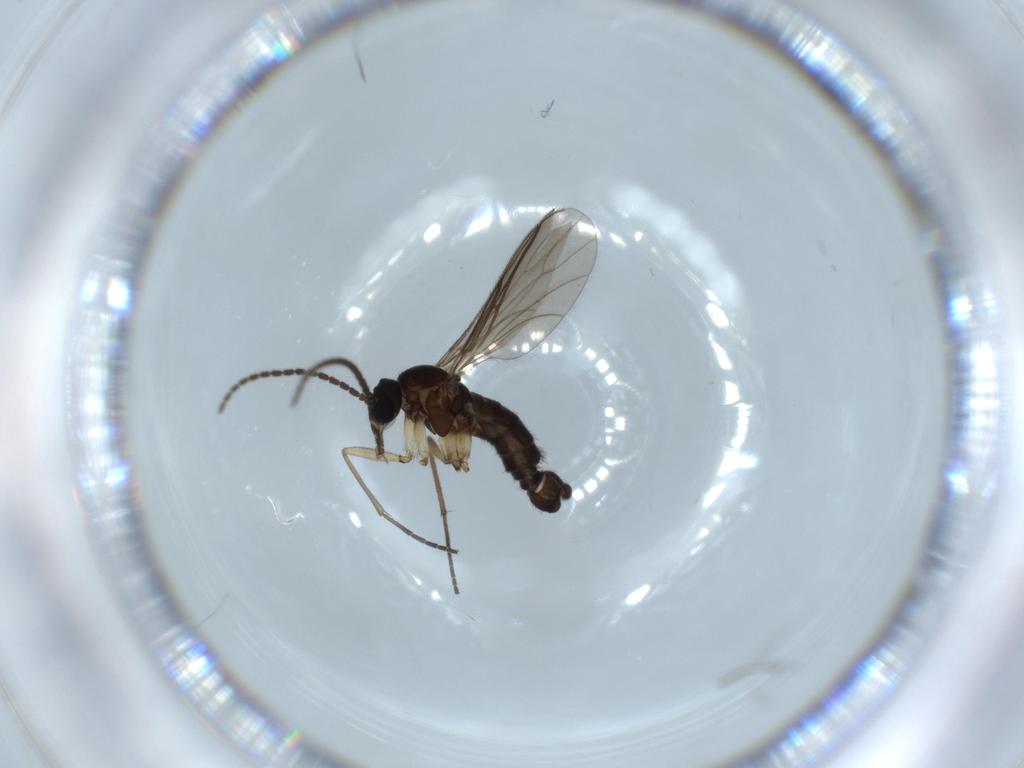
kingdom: Animalia
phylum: Arthropoda
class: Insecta
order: Diptera
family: Sciaridae
